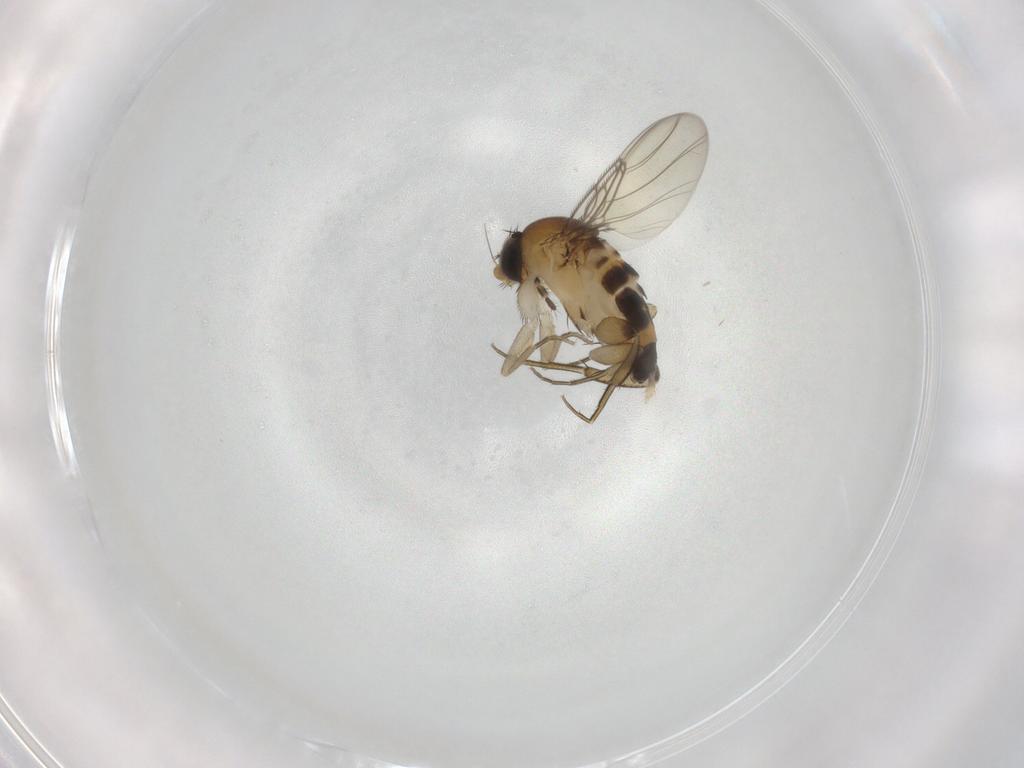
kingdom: Animalia
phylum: Arthropoda
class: Insecta
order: Diptera
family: Phoridae
